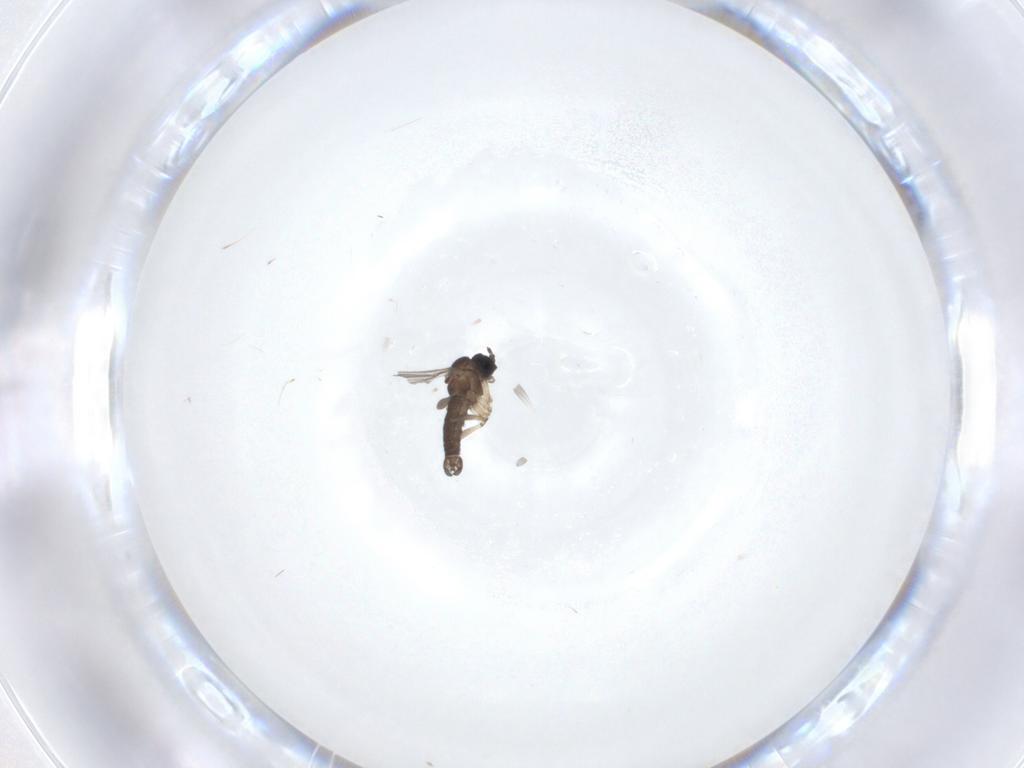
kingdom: Animalia
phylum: Arthropoda
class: Insecta
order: Diptera
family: Sciaridae
